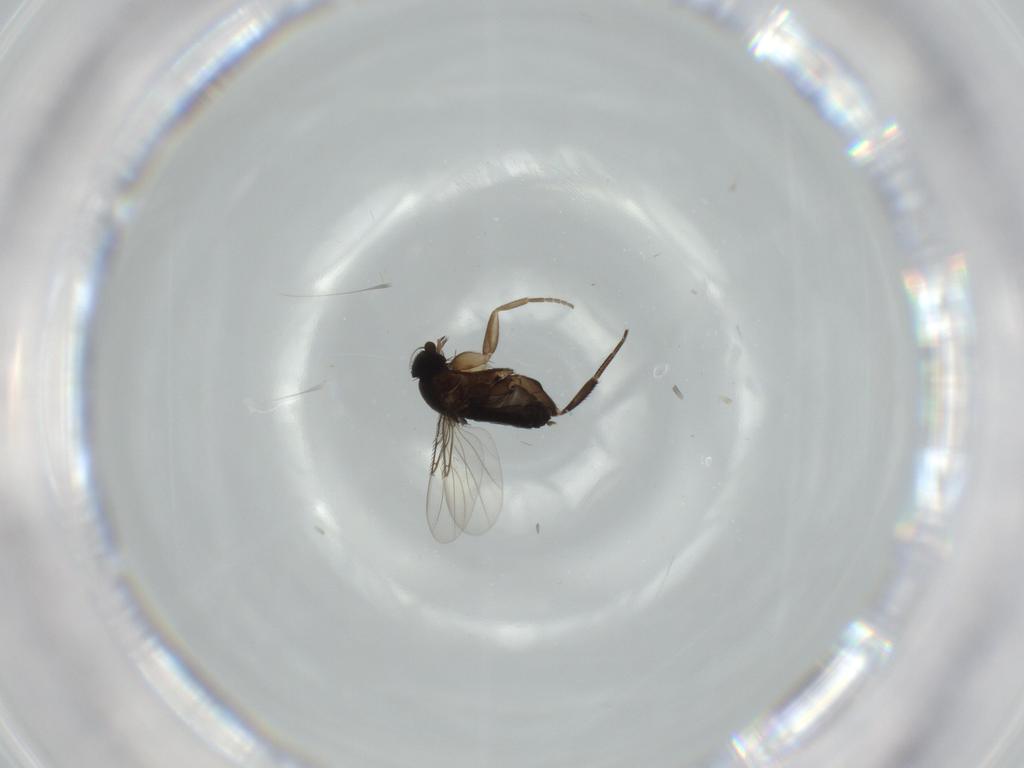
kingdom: Animalia
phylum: Arthropoda
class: Insecta
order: Diptera
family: Phoridae
